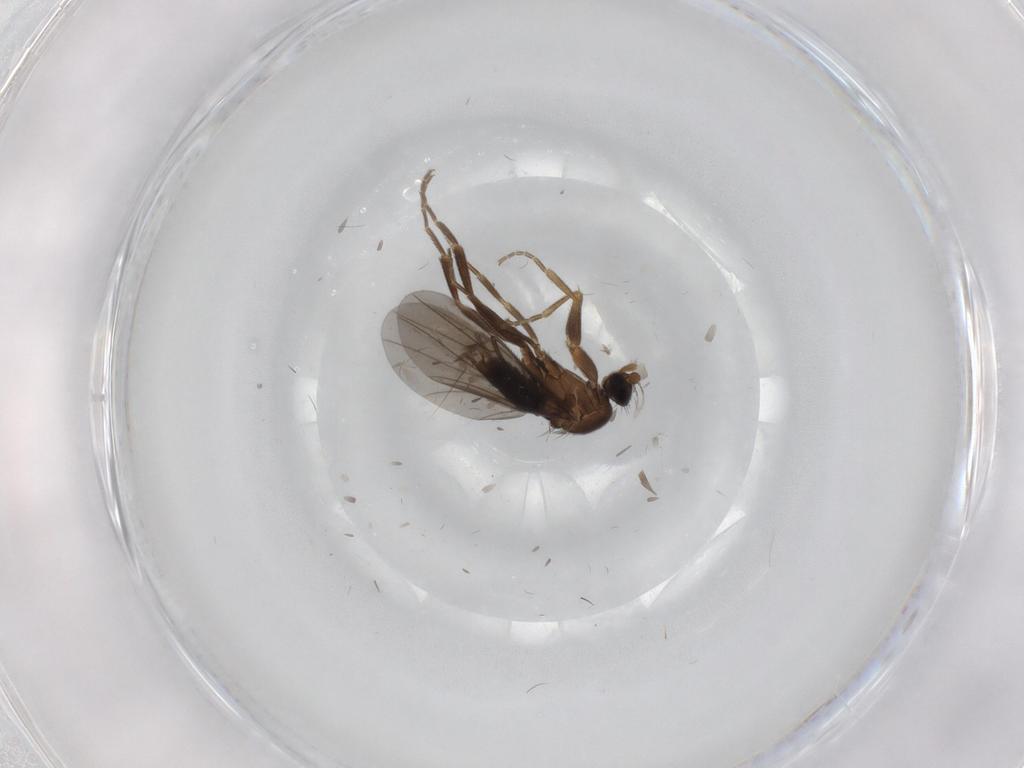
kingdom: Animalia
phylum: Arthropoda
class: Insecta
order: Diptera
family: Phoridae
